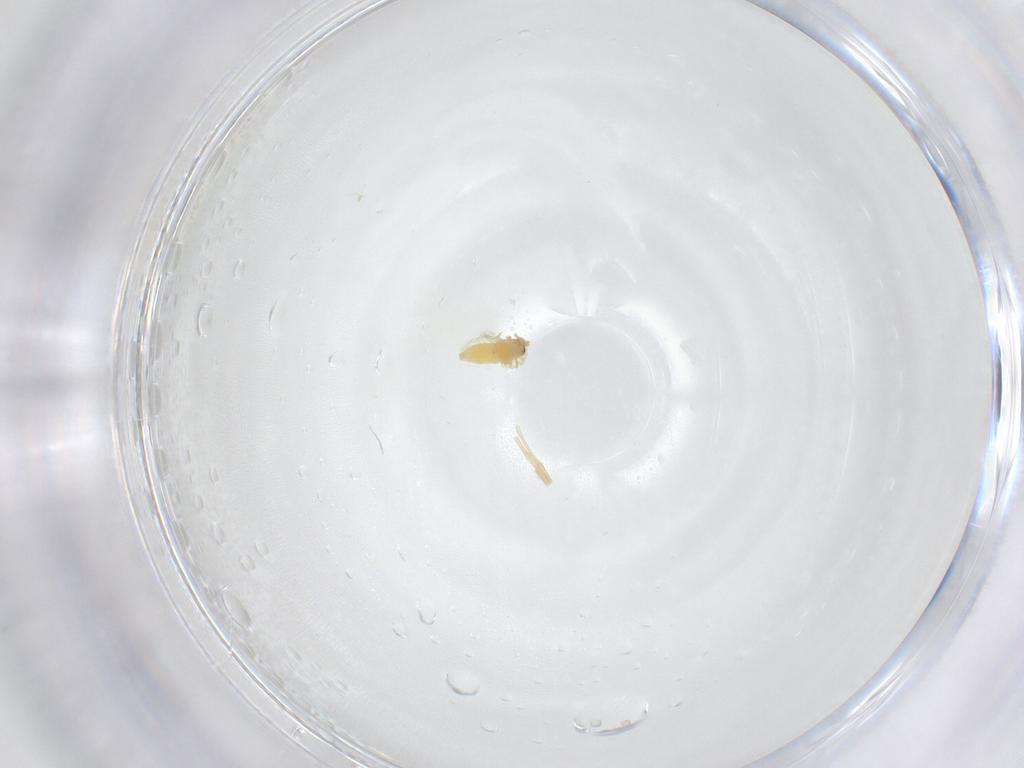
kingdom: Animalia
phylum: Arthropoda
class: Insecta
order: Diptera
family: Calliphoridae
